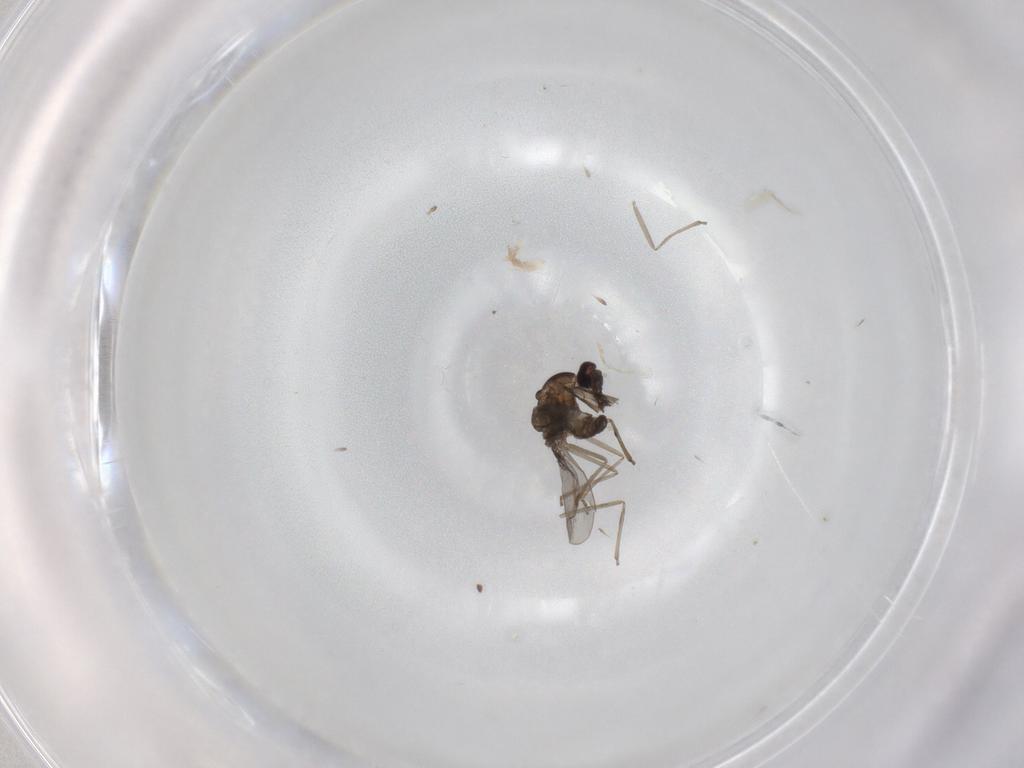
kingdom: Animalia
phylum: Arthropoda
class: Insecta
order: Diptera
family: Cecidomyiidae
